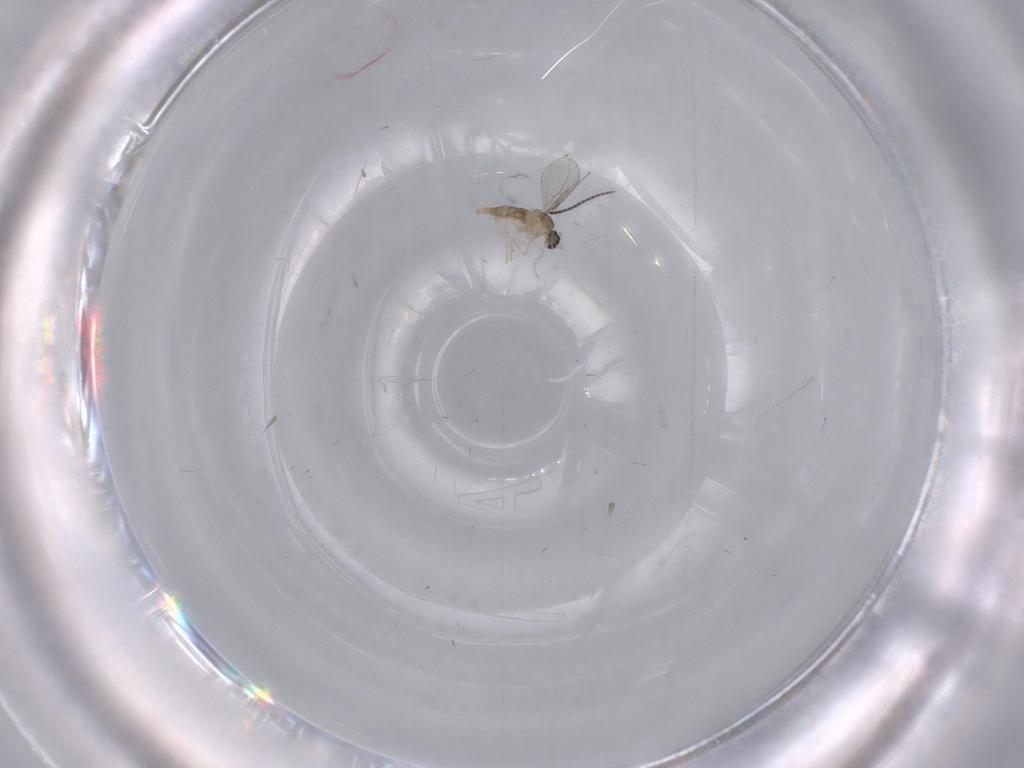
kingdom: Animalia
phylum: Arthropoda
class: Insecta
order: Diptera
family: Cecidomyiidae
